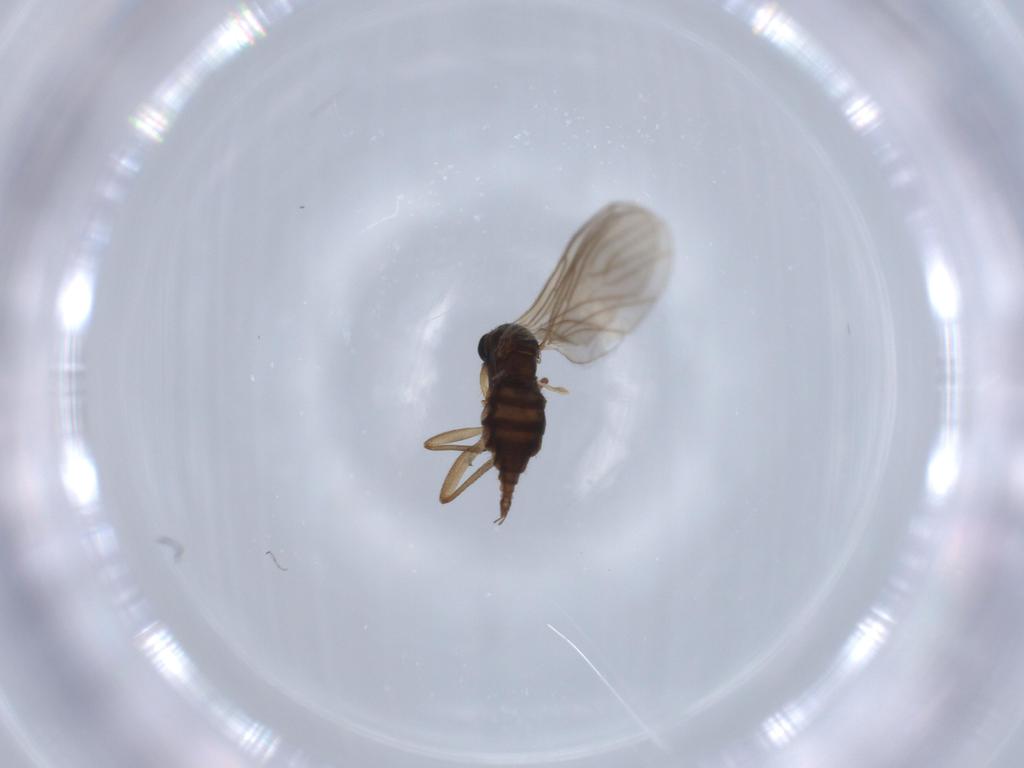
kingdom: Animalia
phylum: Arthropoda
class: Insecta
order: Diptera
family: Sciaridae
